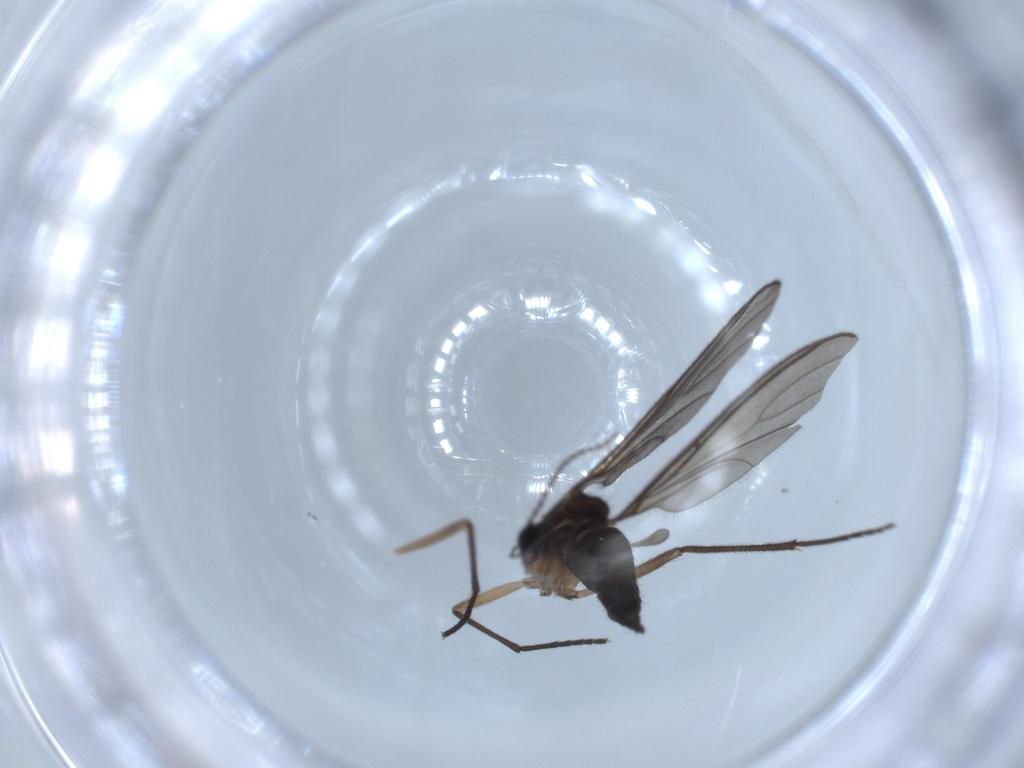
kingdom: Animalia
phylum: Arthropoda
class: Insecta
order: Diptera
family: Sciaridae
